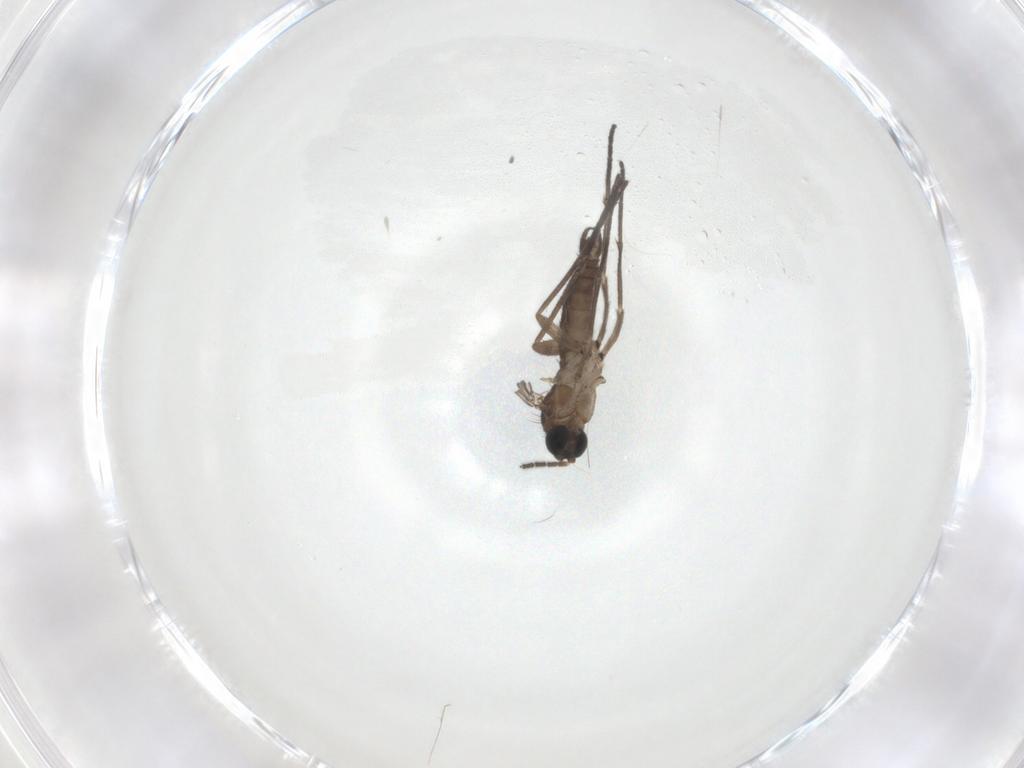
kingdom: Animalia
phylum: Arthropoda
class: Insecta
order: Diptera
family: Sciaridae
